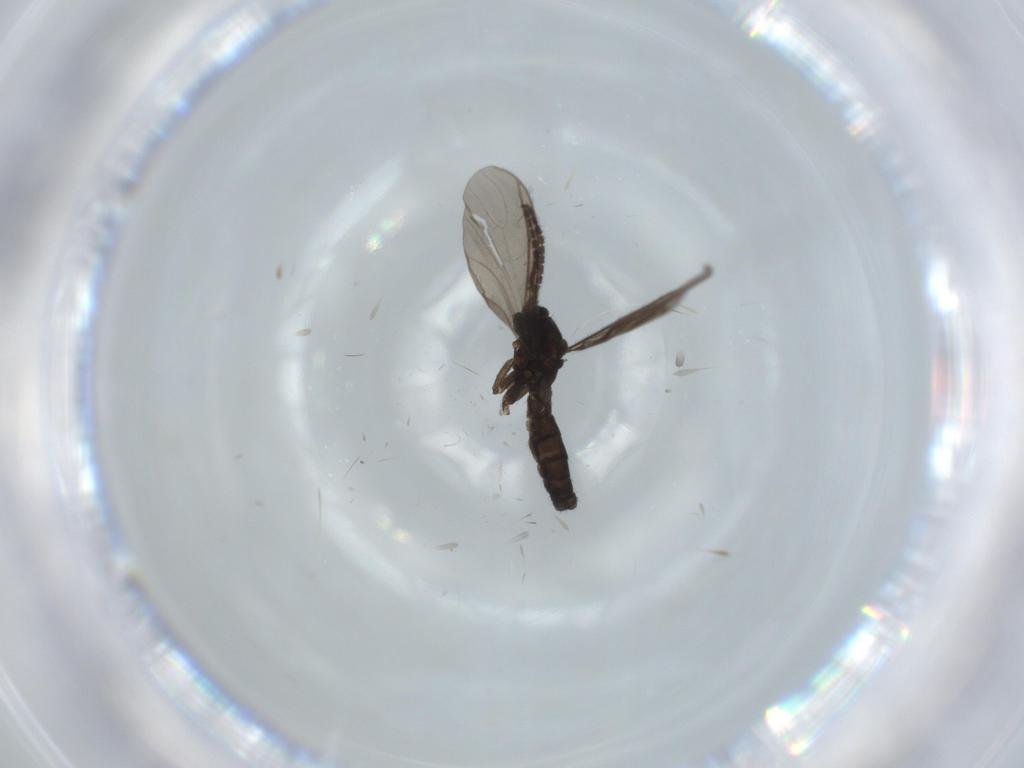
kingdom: Animalia
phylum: Arthropoda
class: Insecta
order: Diptera
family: Sciaridae
